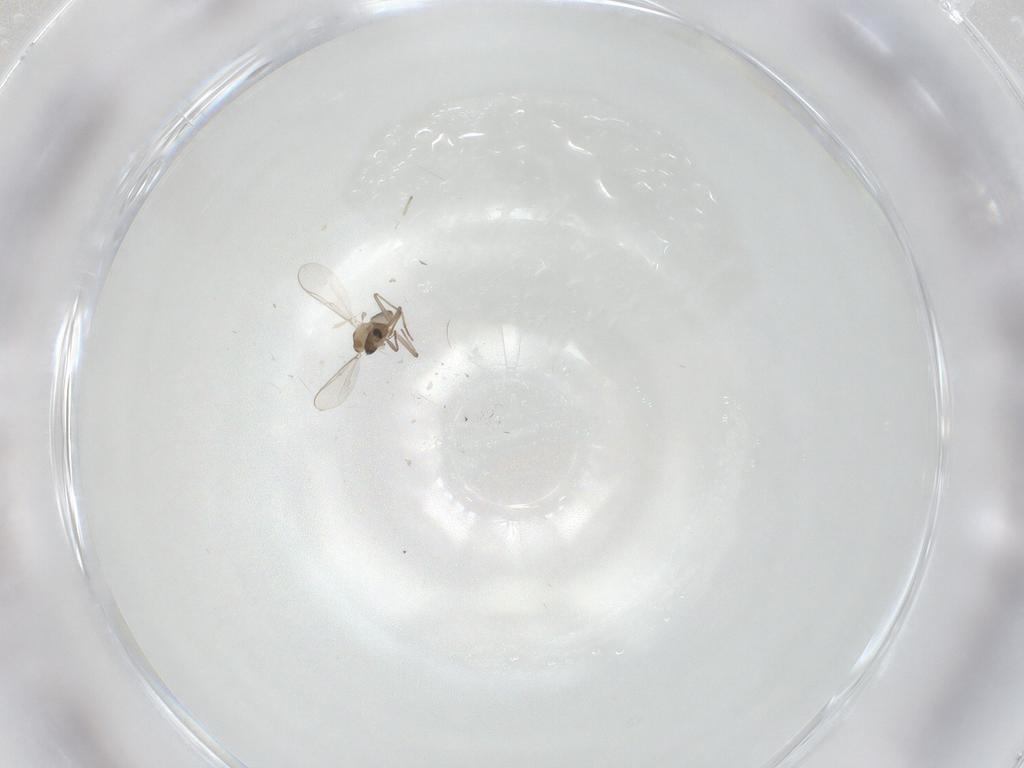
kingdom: Animalia
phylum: Arthropoda
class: Insecta
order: Diptera
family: Chironomidae
